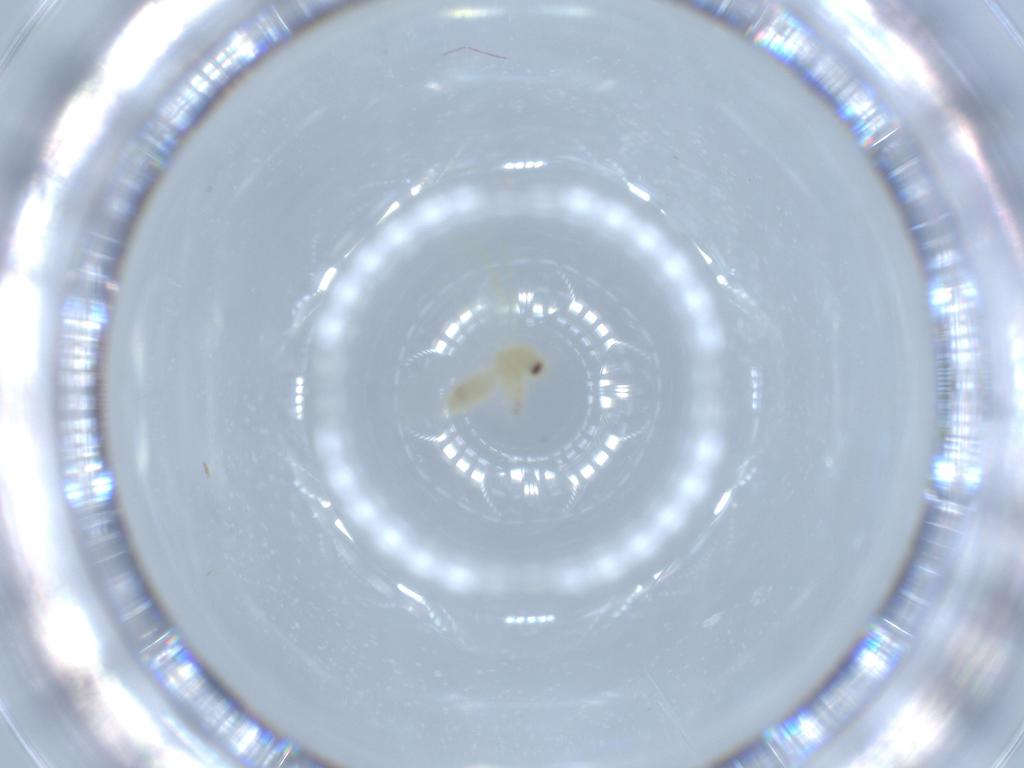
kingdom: Animalia
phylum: Arthropoda
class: Insecta
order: Hemiptera
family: Aleyrodidae
